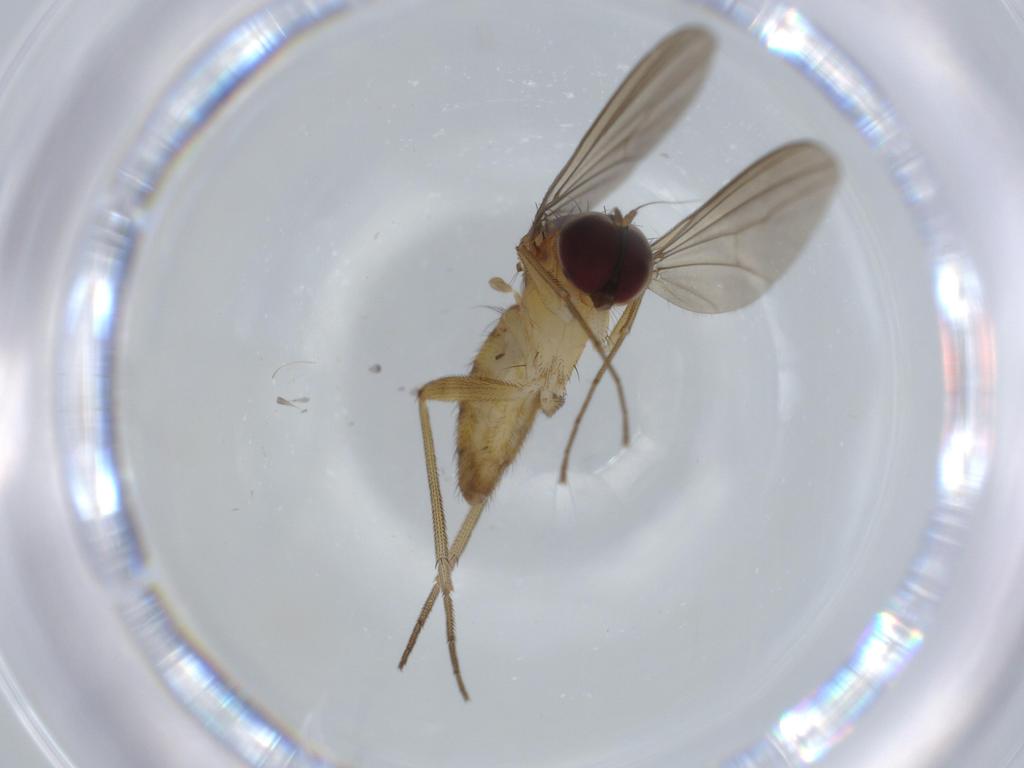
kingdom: Animalia
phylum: Arthropoda
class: Insecta
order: Diptera
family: Dolichopodidae
